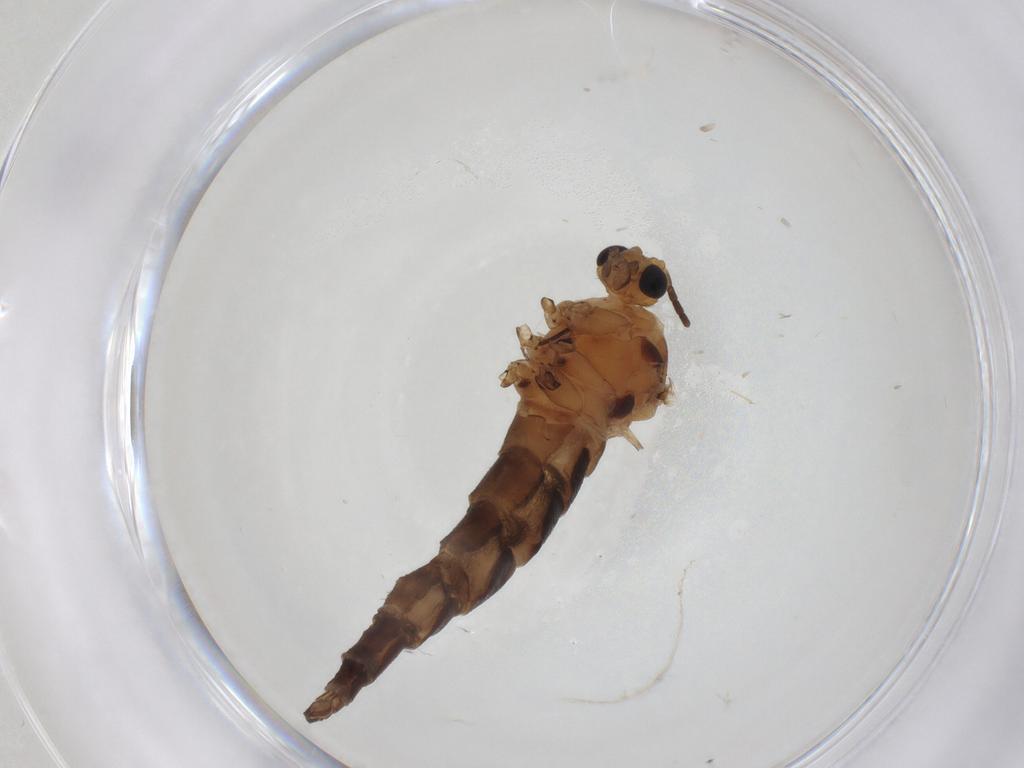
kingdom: Animalia
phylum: Arthropoda
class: Insecta
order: Diptera
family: Sciaridae
